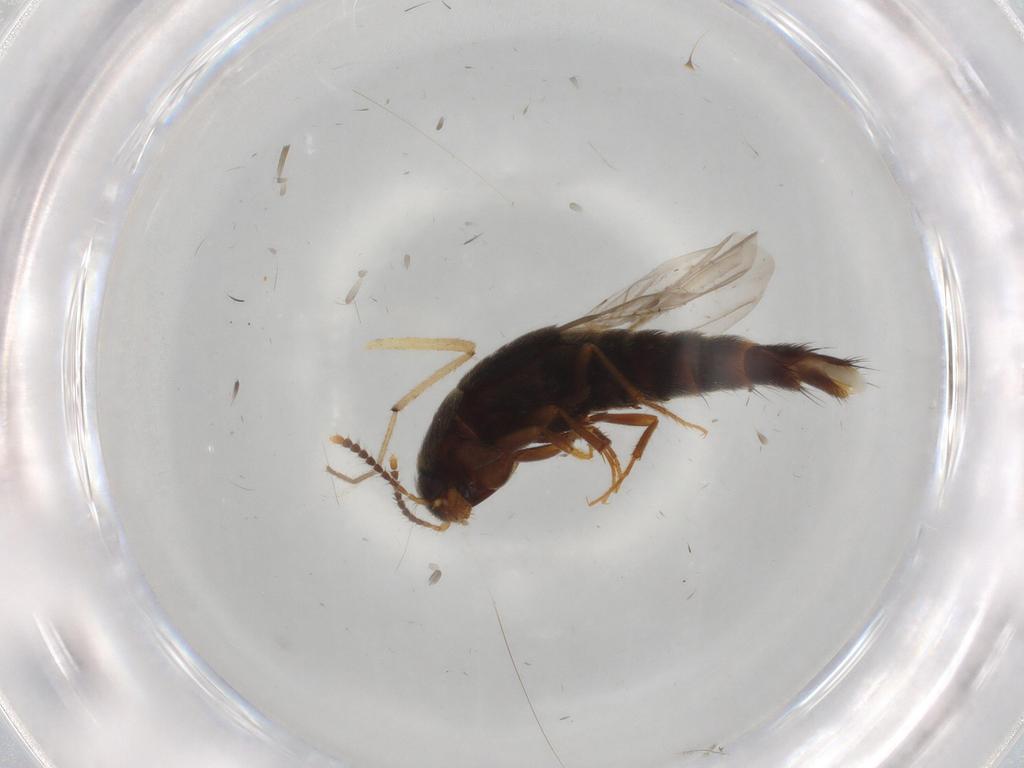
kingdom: Animalia
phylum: Arthropoda
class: Insecta
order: Coleoptera
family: Staphylinidae
